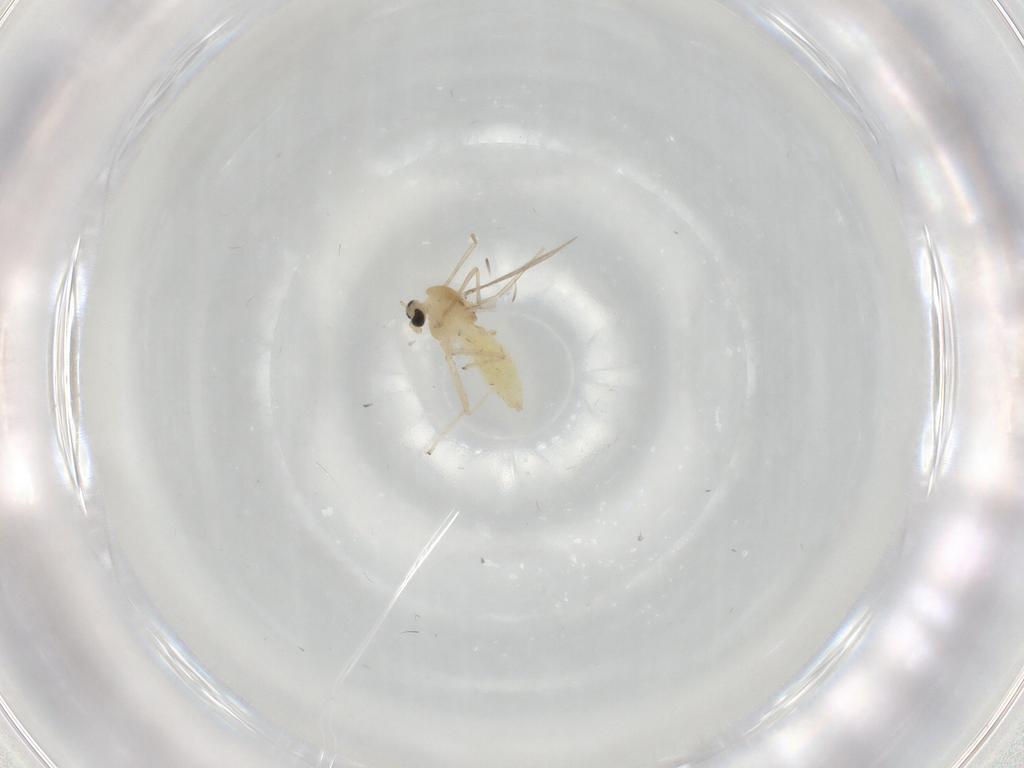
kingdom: Animalia
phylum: Arthropoda
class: Insecta
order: Diptera
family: Chironomidae
